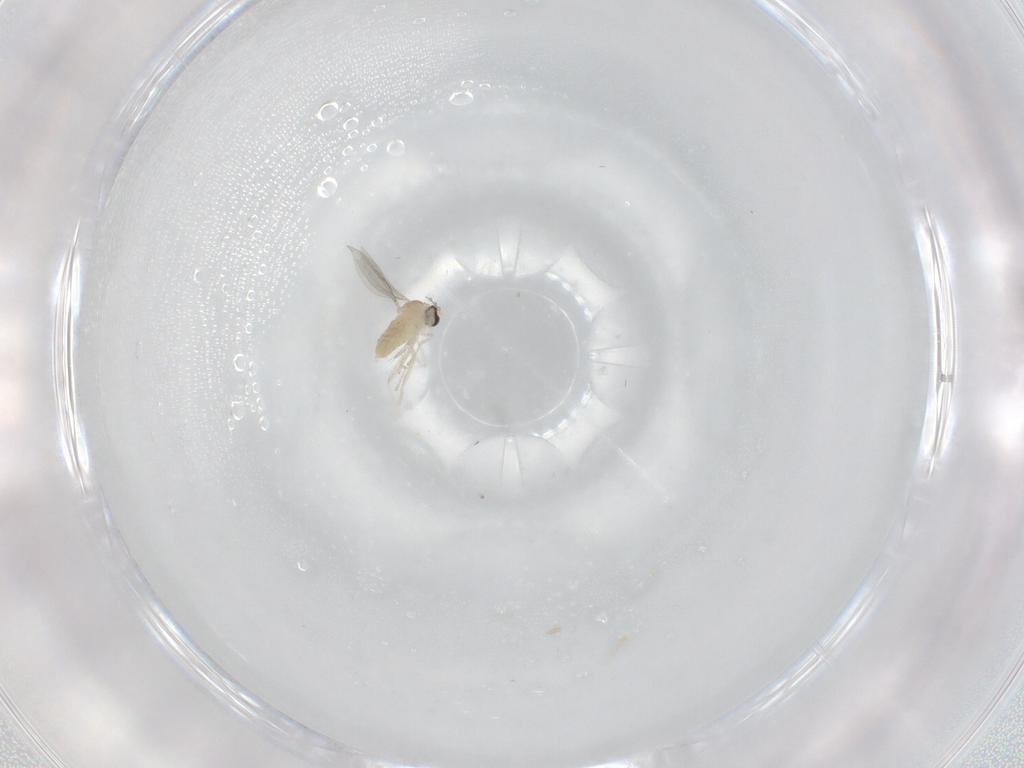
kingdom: Animalia
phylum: Arthropoda
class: Insecta
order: Diptera
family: Cecidomyiidae
